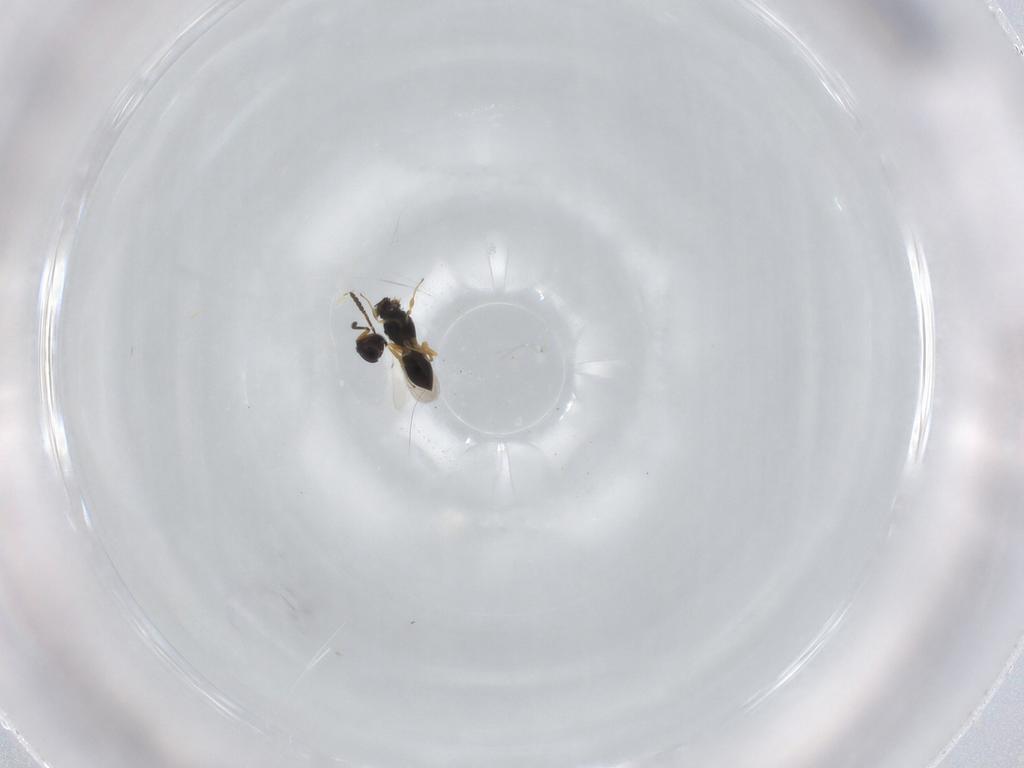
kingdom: Animalia
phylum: Arthropoda
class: Insecta
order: Hymenoptera
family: Scelionidae
